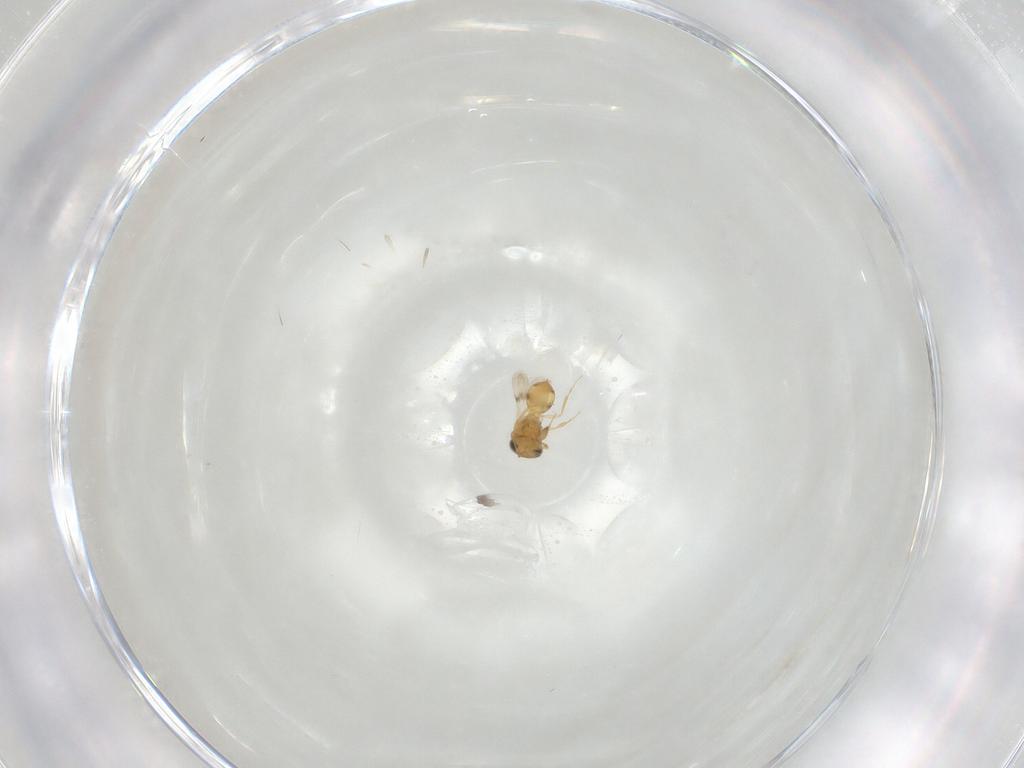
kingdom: Animalia
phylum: Arthropoda
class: Insecta
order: Hymenoptera
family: Scelionidae
